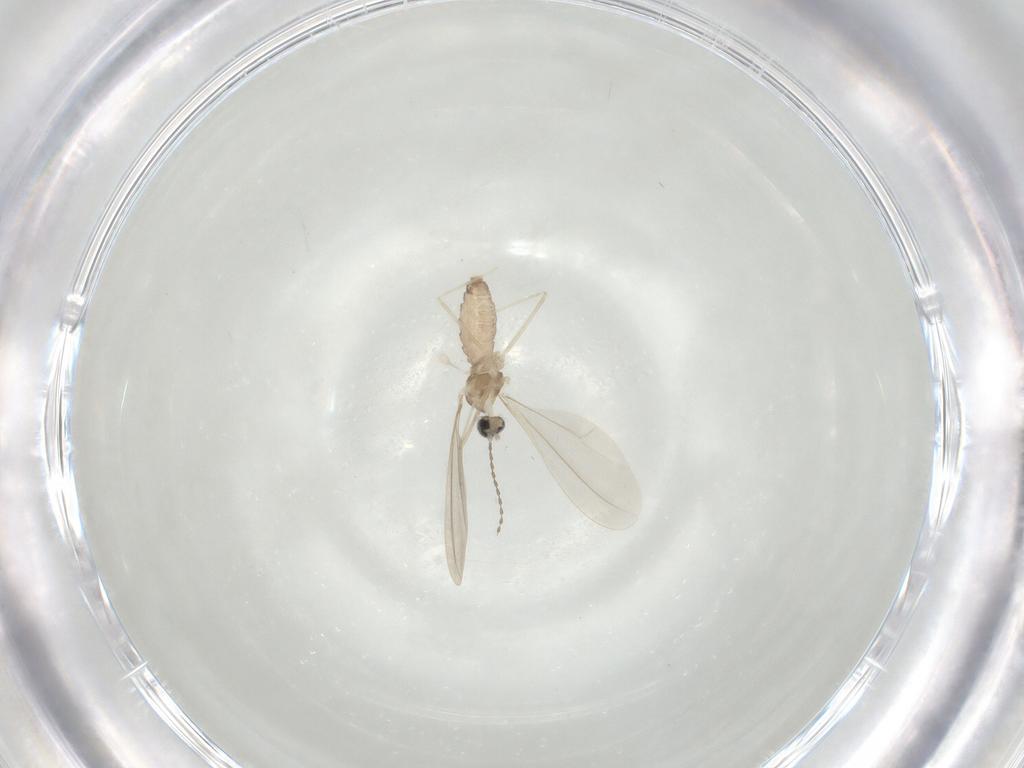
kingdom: Animalia
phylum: Arthropoda
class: Insecta
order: Diptera
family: Cecidomyiidae
